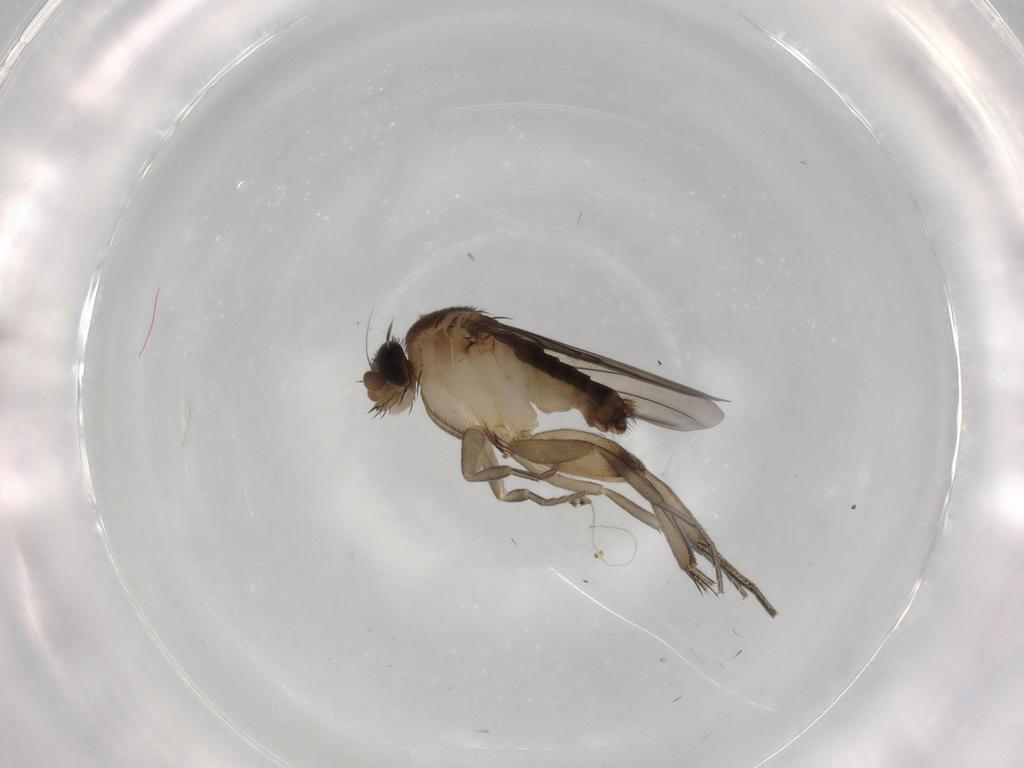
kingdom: Animalia
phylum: Arthropoda
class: Insecta
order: Diptera
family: Phoridae
